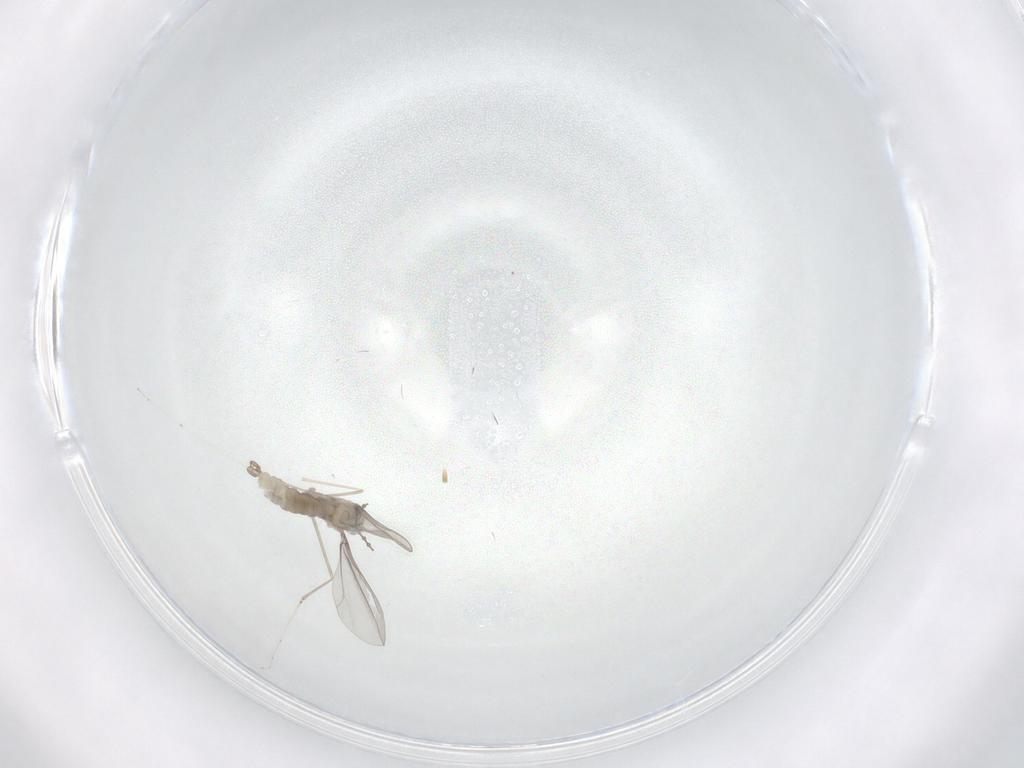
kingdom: Animalia
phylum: Arthropoda
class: Insecta
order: Diptera
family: Cecidomyiidae
